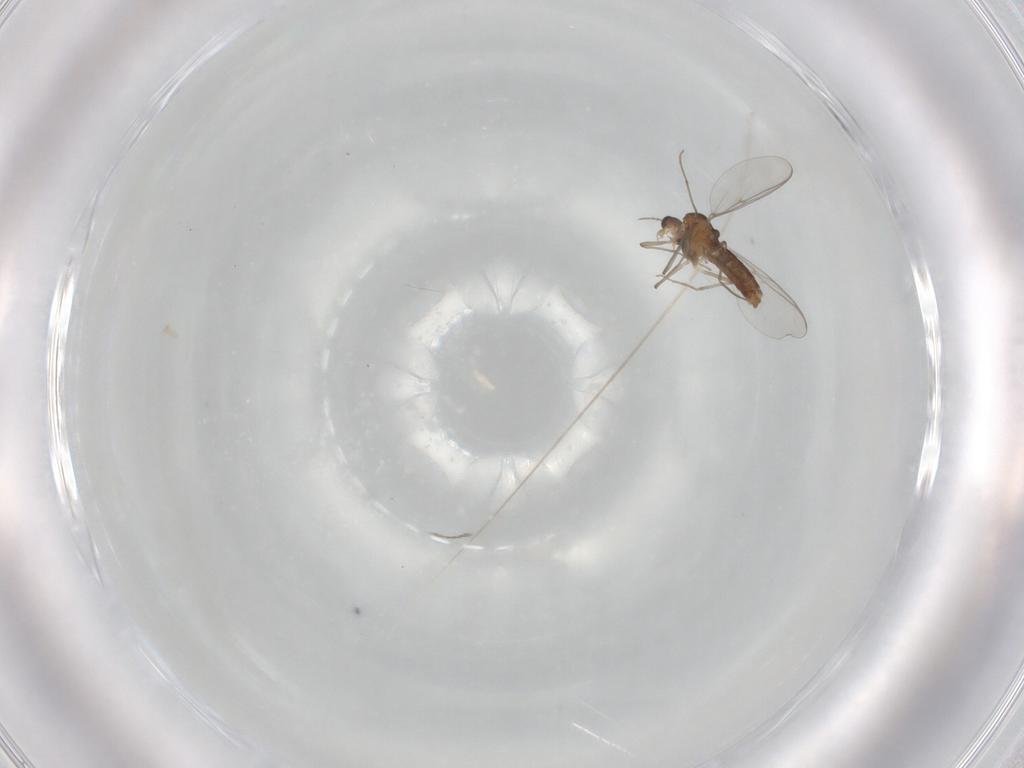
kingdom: Animalia
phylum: Arthropoda
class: Insecta
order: Diptera
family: Chironomidae
